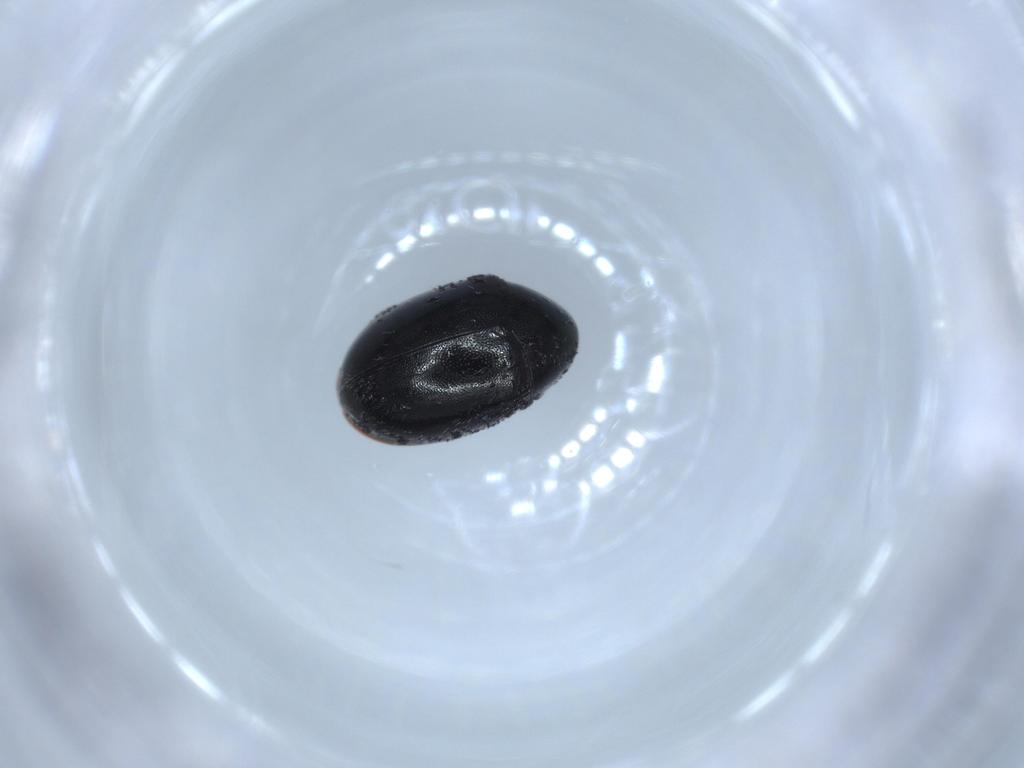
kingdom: Animalia
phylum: Arthropoda
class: Insecta
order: Coleoptera
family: Ptinidae
